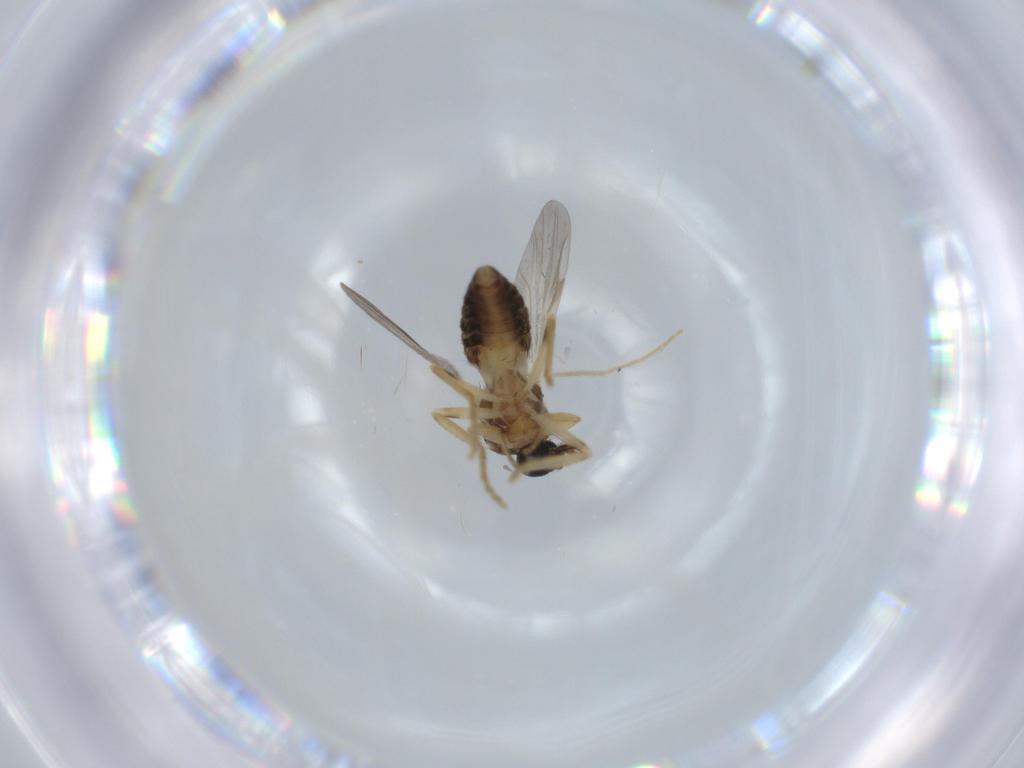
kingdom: Animalia
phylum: Arthropoda
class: Insecta
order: Diptera
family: Ceratopogonidae
